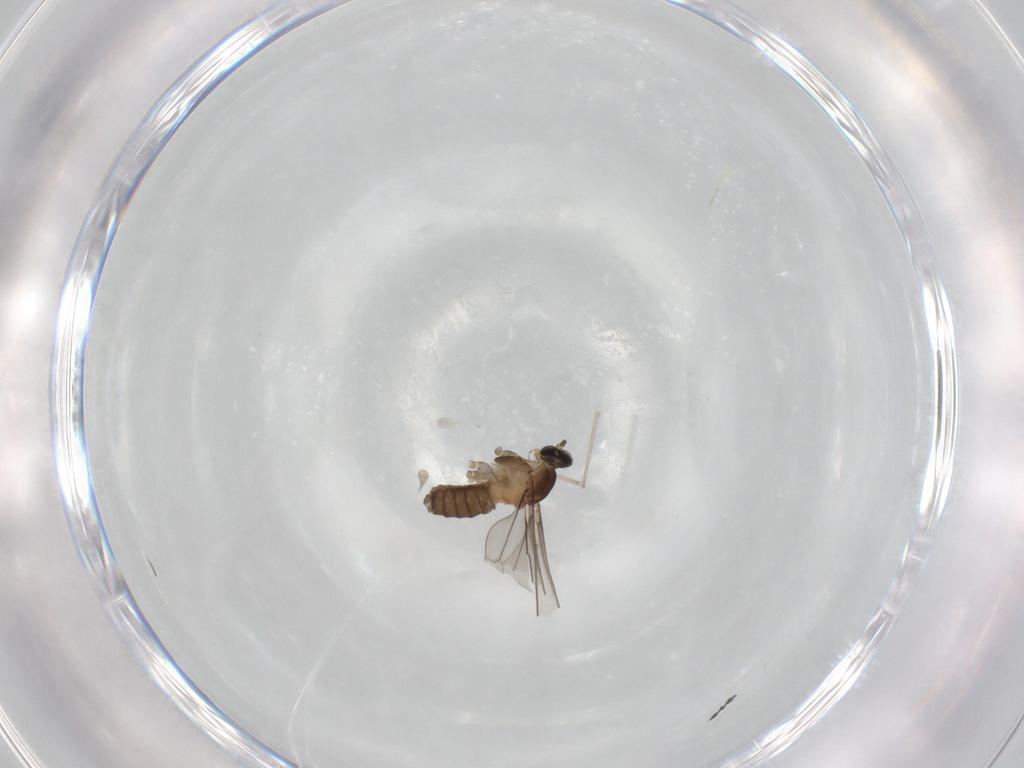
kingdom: Animalia
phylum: Arthropoda
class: Insecta
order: Diptera
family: Cecidomyiidae
